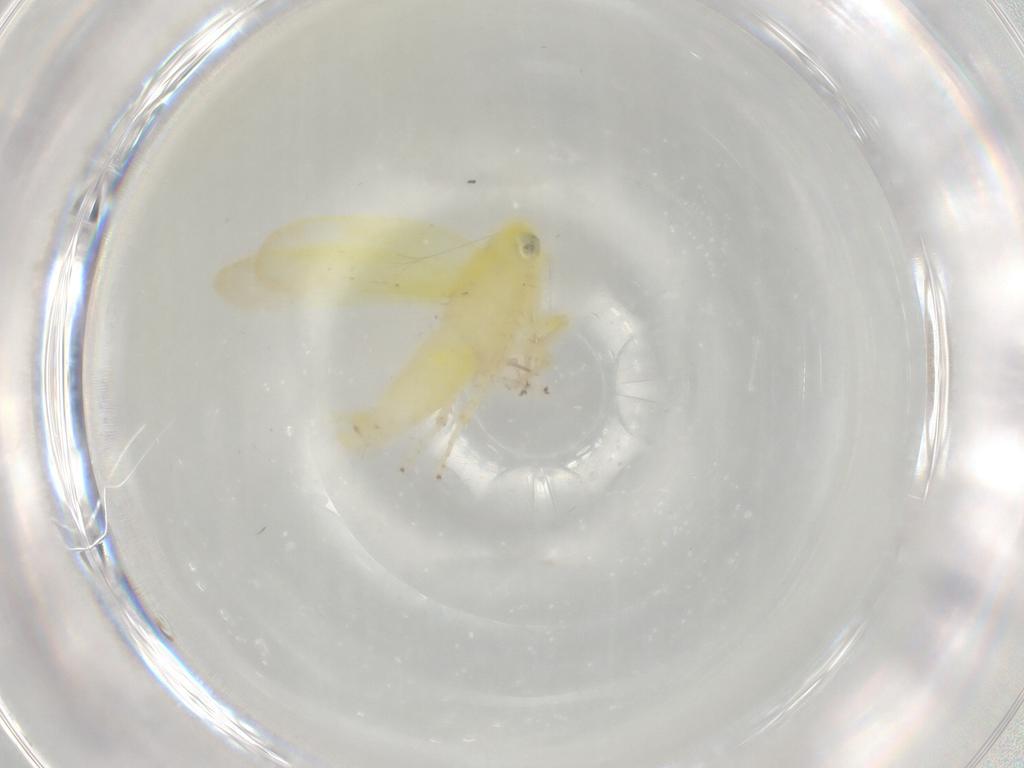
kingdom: Animalia
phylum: Arthropoda
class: Insecta
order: Hemiptera
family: Cicadellidae
